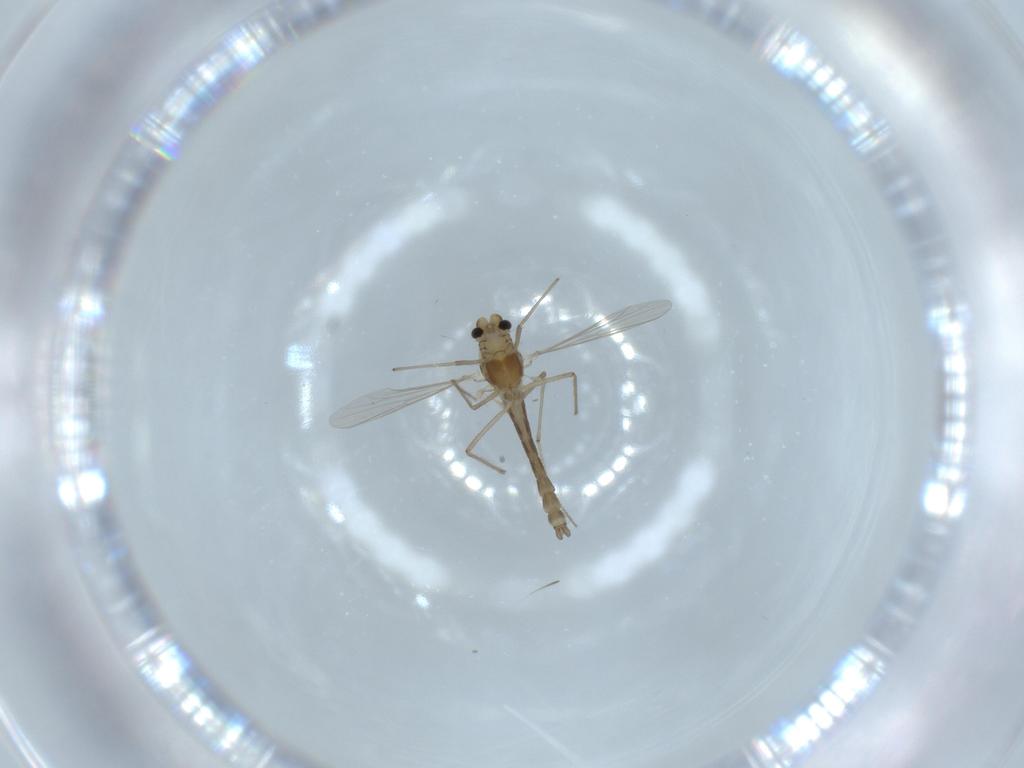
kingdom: Animalia
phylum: Arthropoda
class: Insecta
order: Diptera
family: Chironomidae
